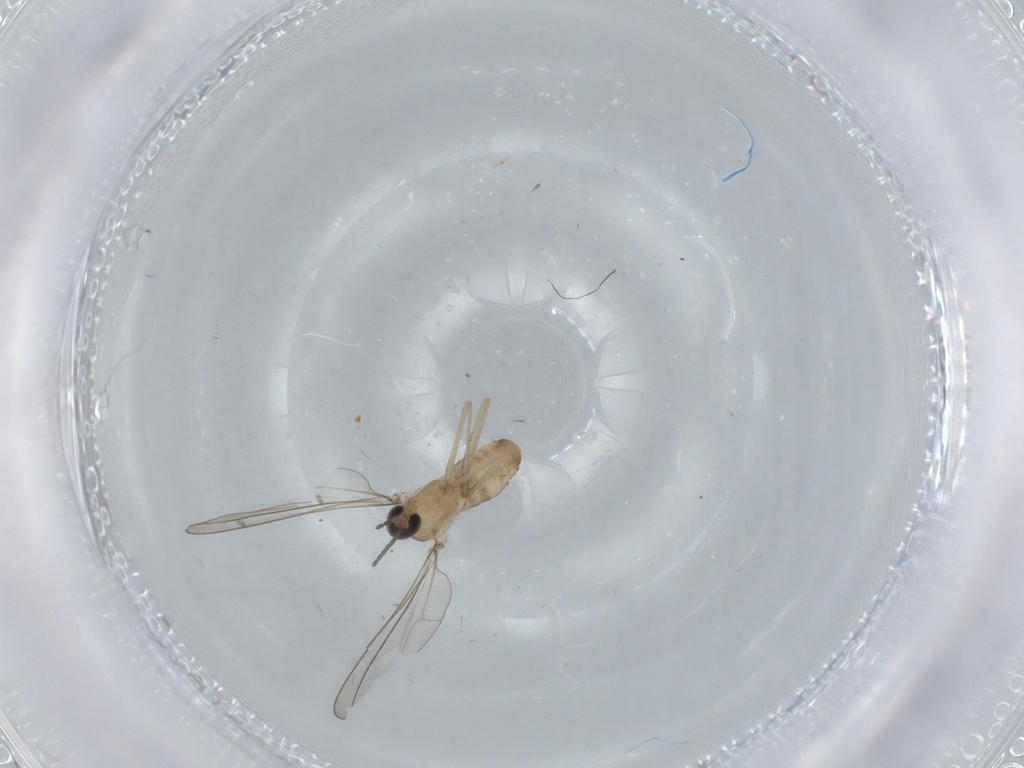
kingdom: Animalia
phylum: Arthropoda
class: Insecta
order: Diptera
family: Cecidomyiidae
